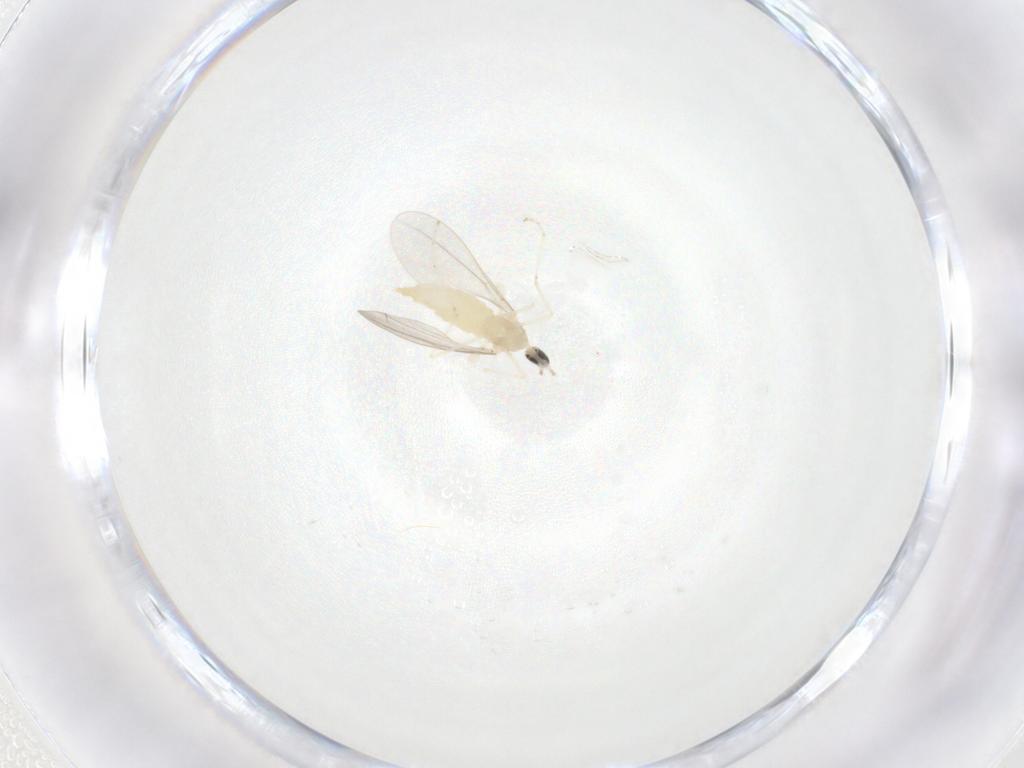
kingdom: Animalia
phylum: Arthropoda
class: Insecta
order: Diptera
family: Cecidomyiidae
